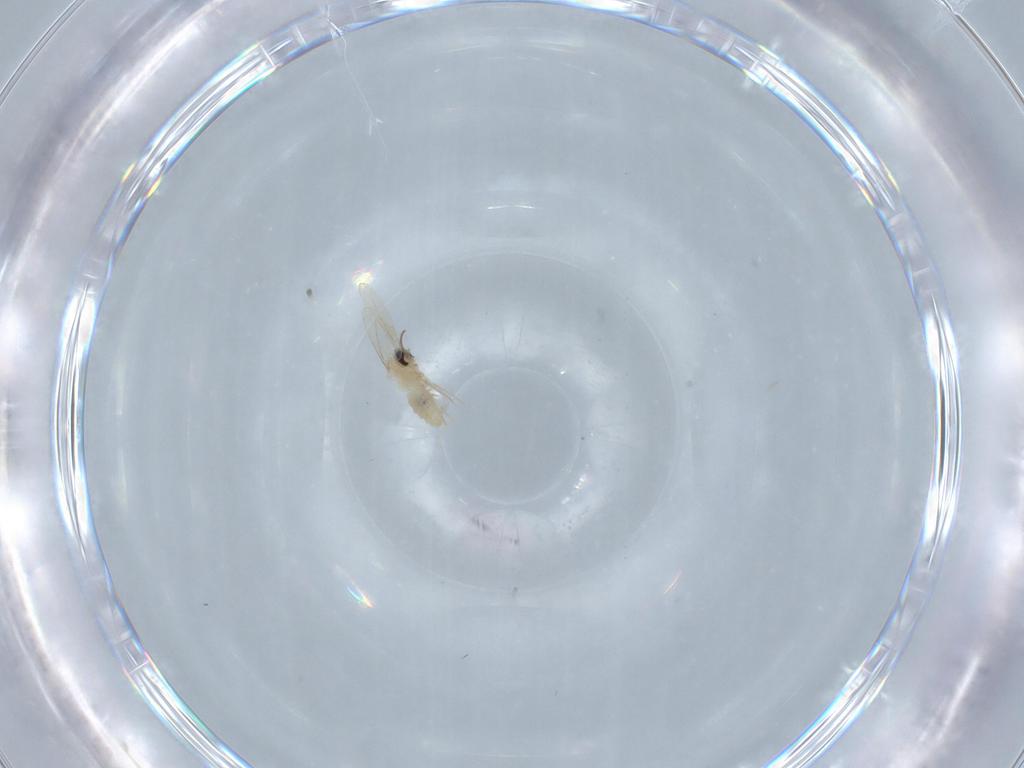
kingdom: Animalia
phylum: Arthropoda
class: Insecta
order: Diptera
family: Cecidomyiidae
